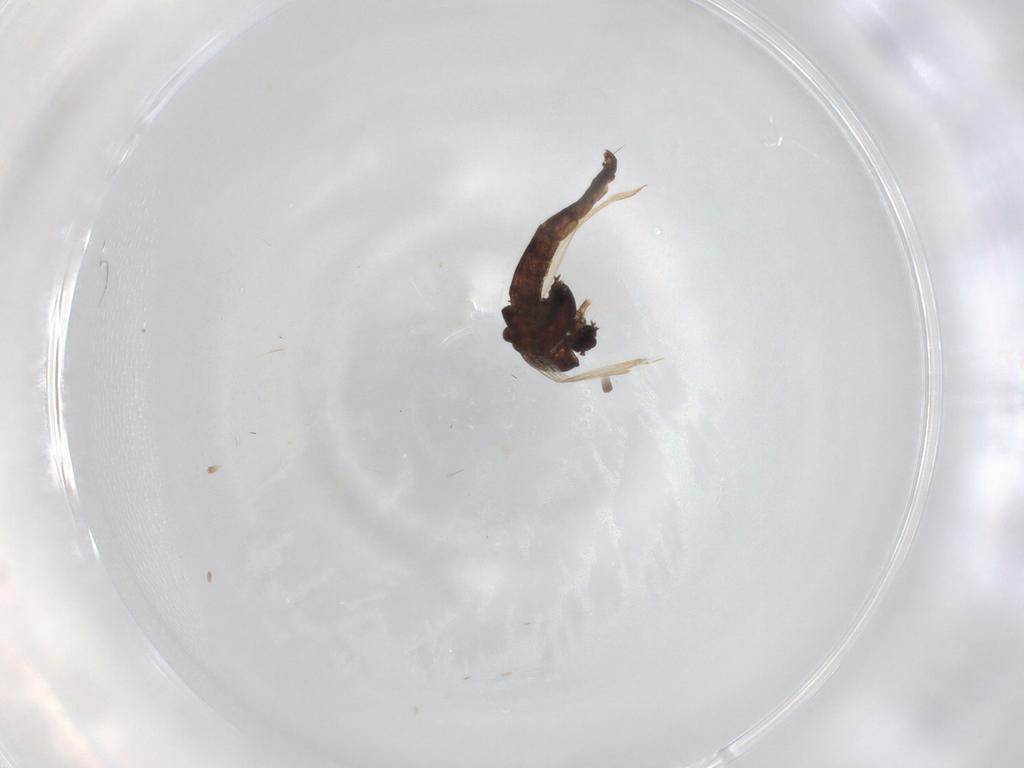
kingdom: Animalia
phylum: Arthropoda
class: Insecta
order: Diptera
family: Chironomidae
